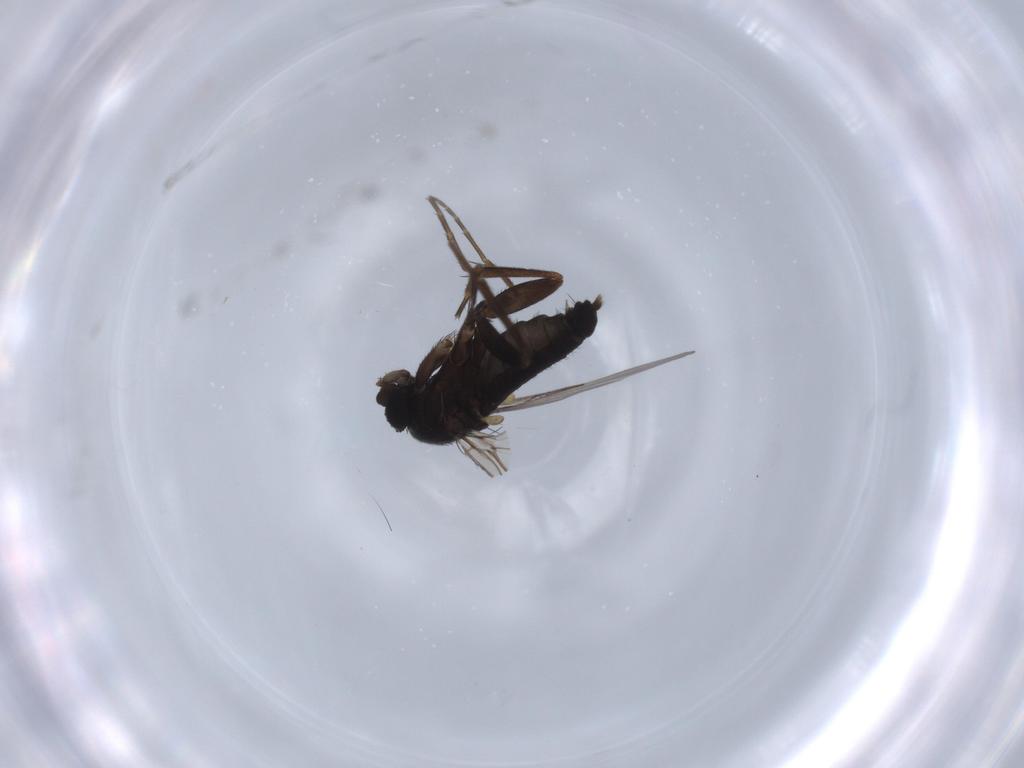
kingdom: Animalia
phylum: Arthropoda
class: Insecta
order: Diptera
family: Phoridae
